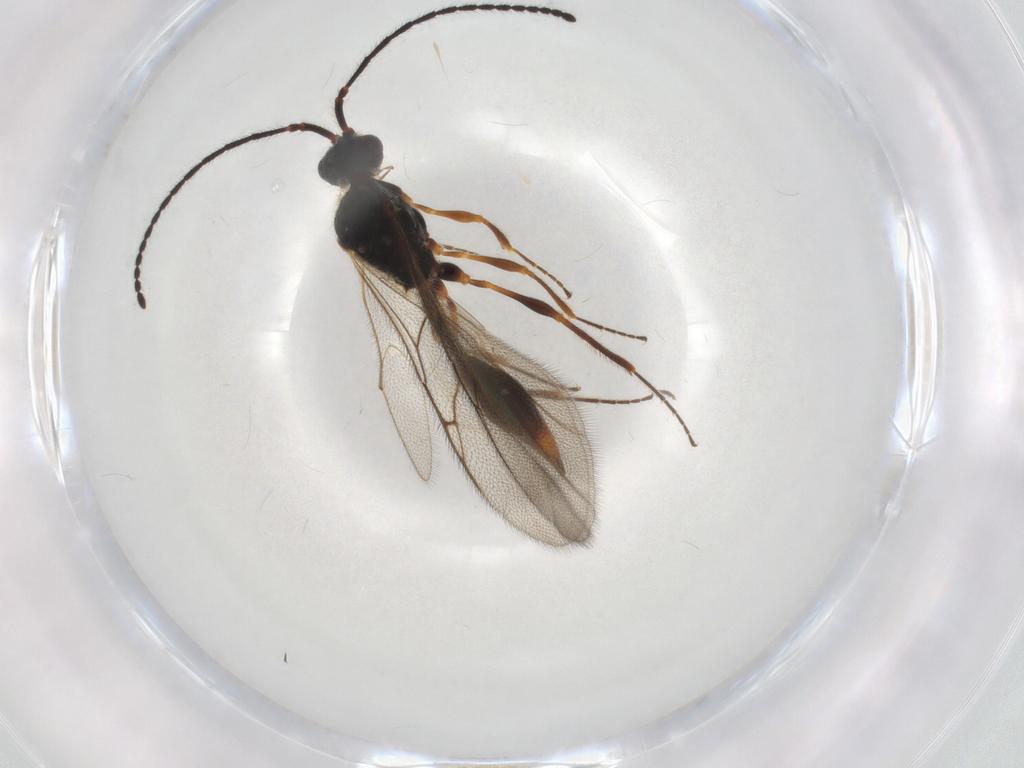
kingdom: Animalia
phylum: Arthropoda
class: Insecta
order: Hymenoptera
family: Diapriidae
